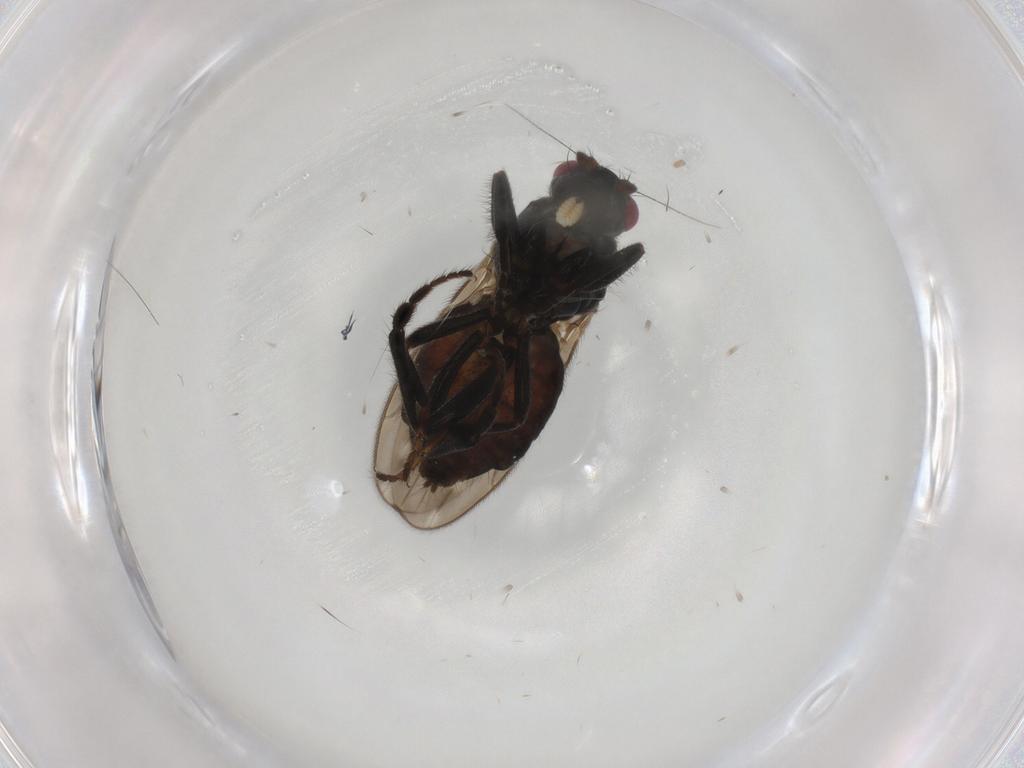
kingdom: Animalia
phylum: Arthropoda
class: Insecta
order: Diptera
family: Sphaeroceridae
